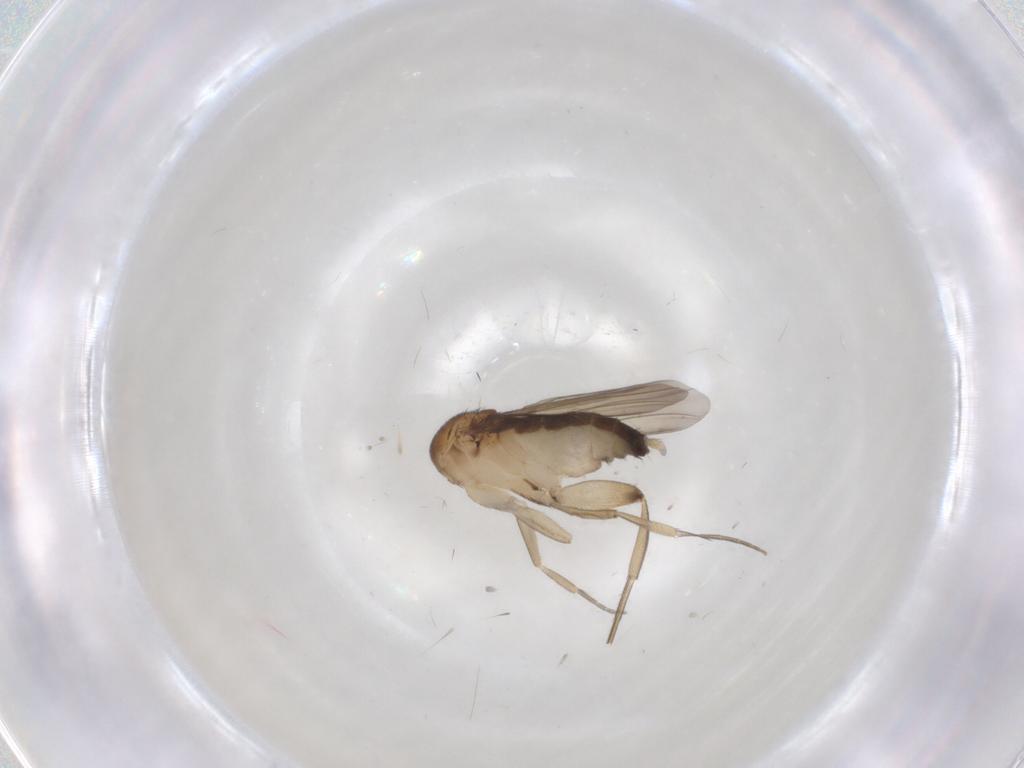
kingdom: Animalia
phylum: Arthropoda
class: Insecta
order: Diptera
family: Phoridae
